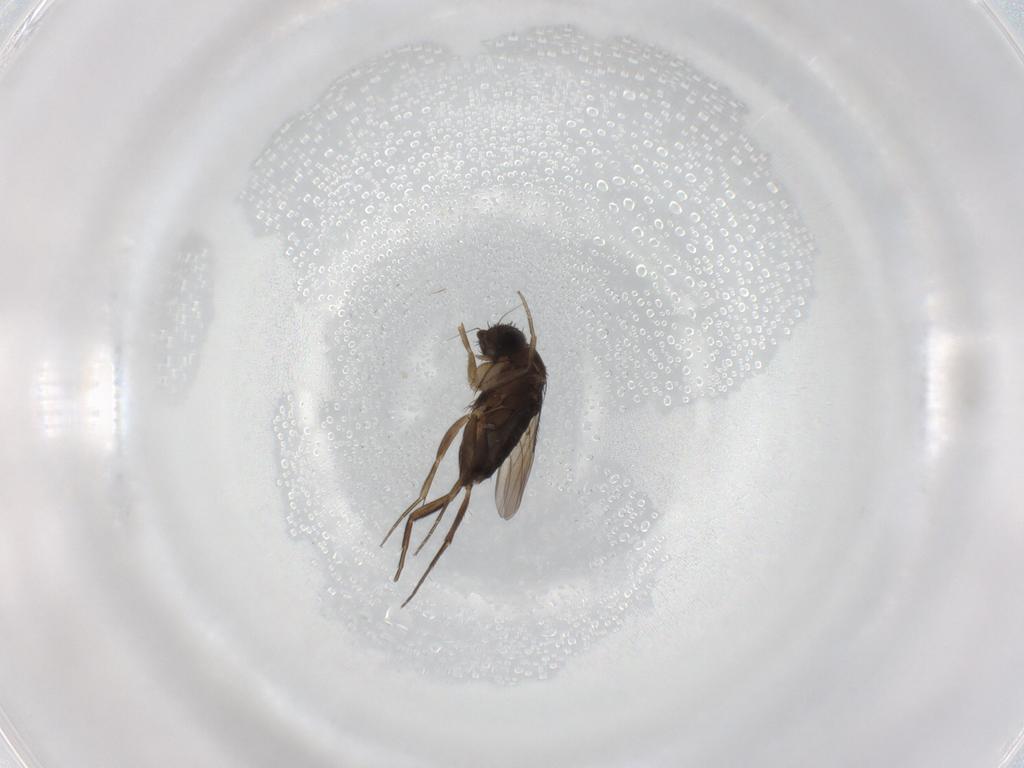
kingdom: Animalia
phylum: Arthropoda
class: Insecta
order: Diptera
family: Phoridae
